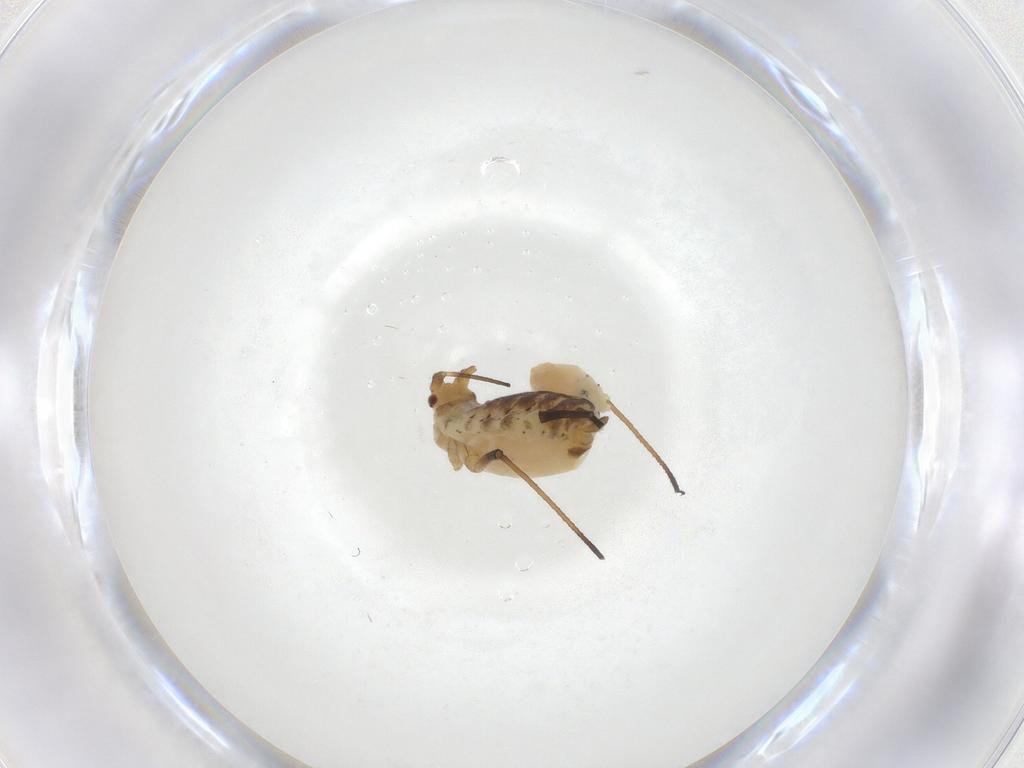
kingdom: Animalia
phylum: Arthropoda
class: Insecta
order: Hemiptera
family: Aphididae
